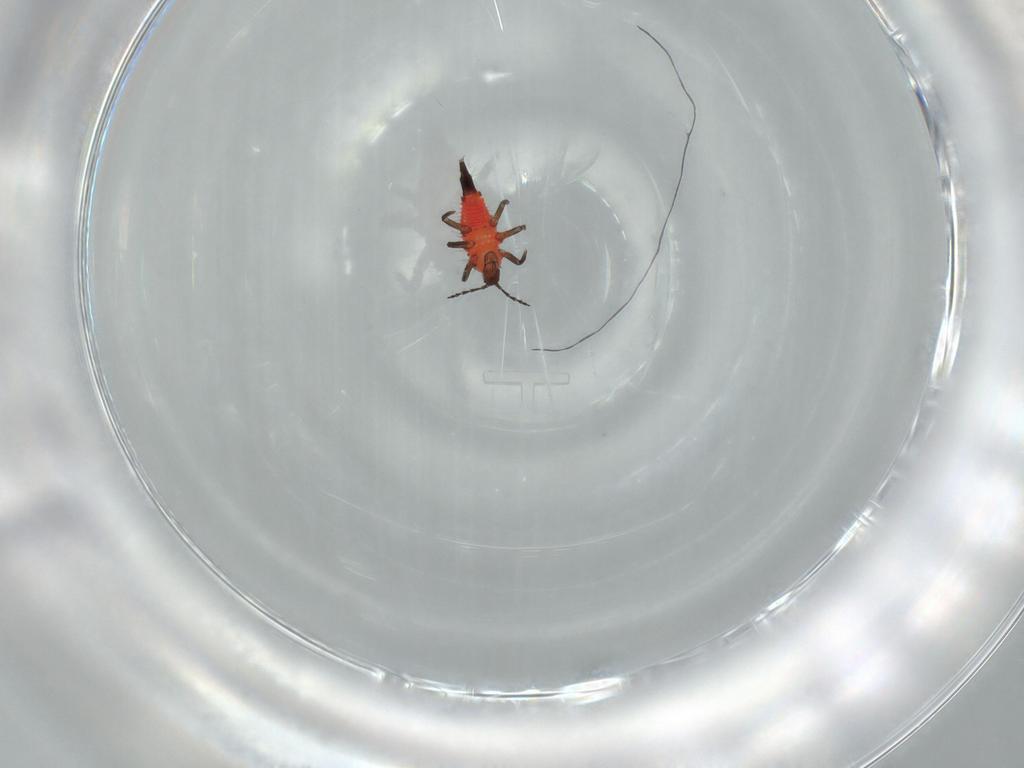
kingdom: Animalia
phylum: Arthropoda
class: Insecta
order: Thysanoptera
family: Phlaeothripidae
